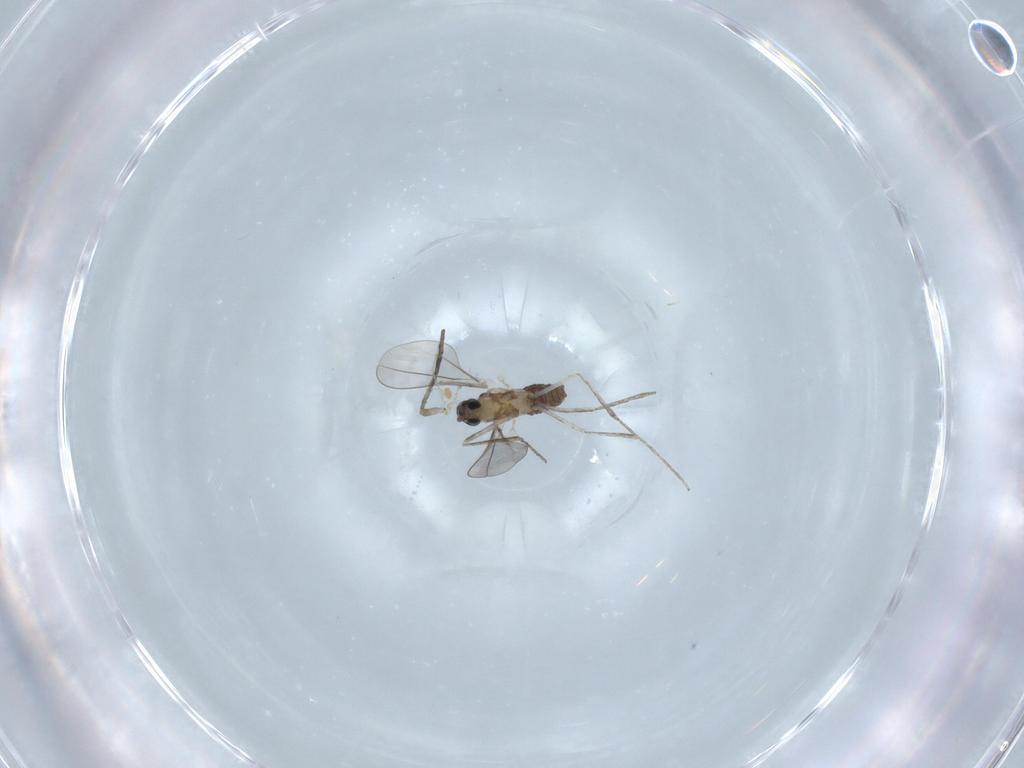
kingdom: Animalia
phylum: Arthropoda
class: Insecta
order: Diptera
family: Cecidomyiidae
